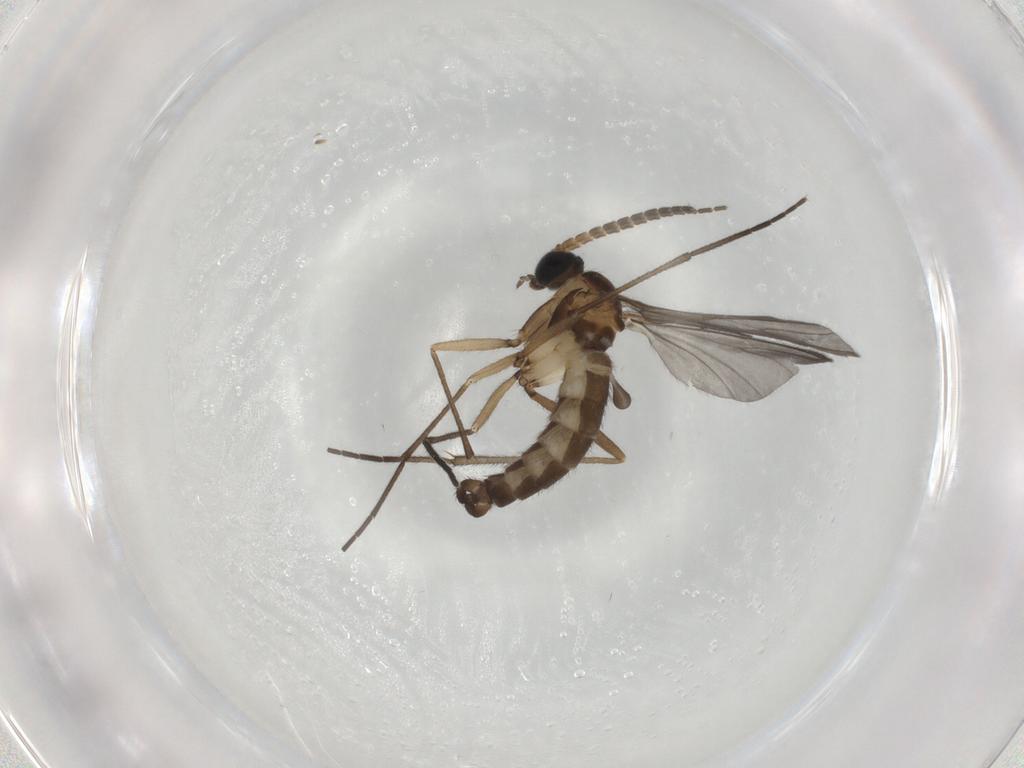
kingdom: Animalia
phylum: Arthropoda
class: Insecta
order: Diptera
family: Sciaridae
